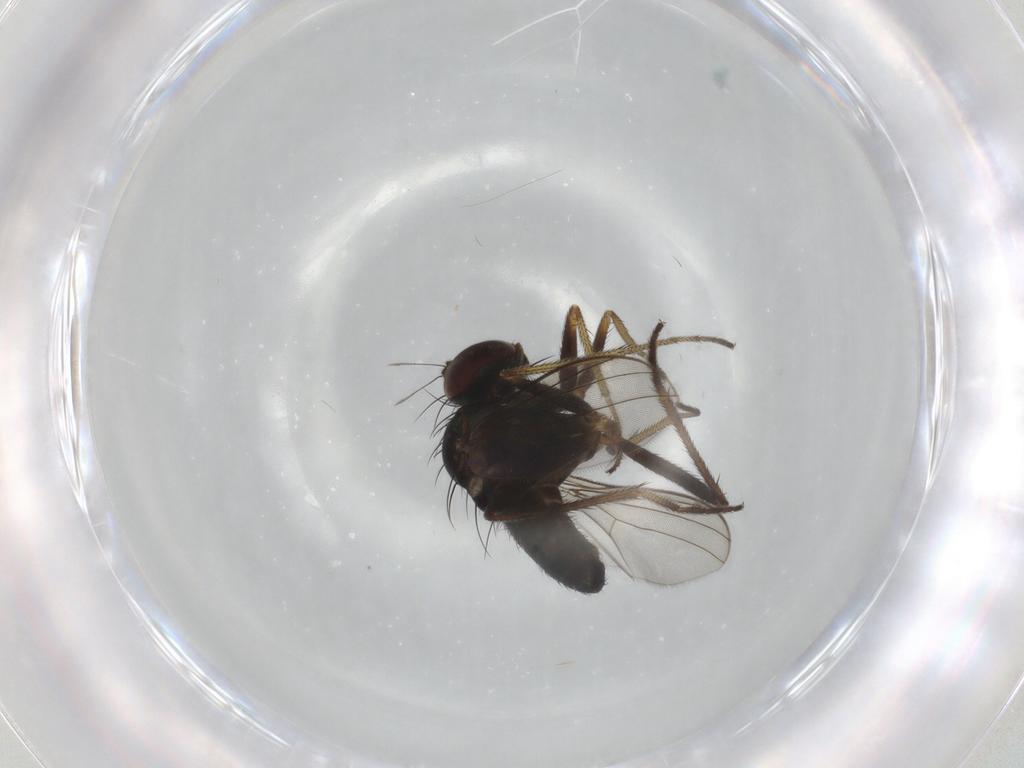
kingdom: Animalia
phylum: Arthropoda
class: Insecta
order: Diptera
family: Dolichopodidae
